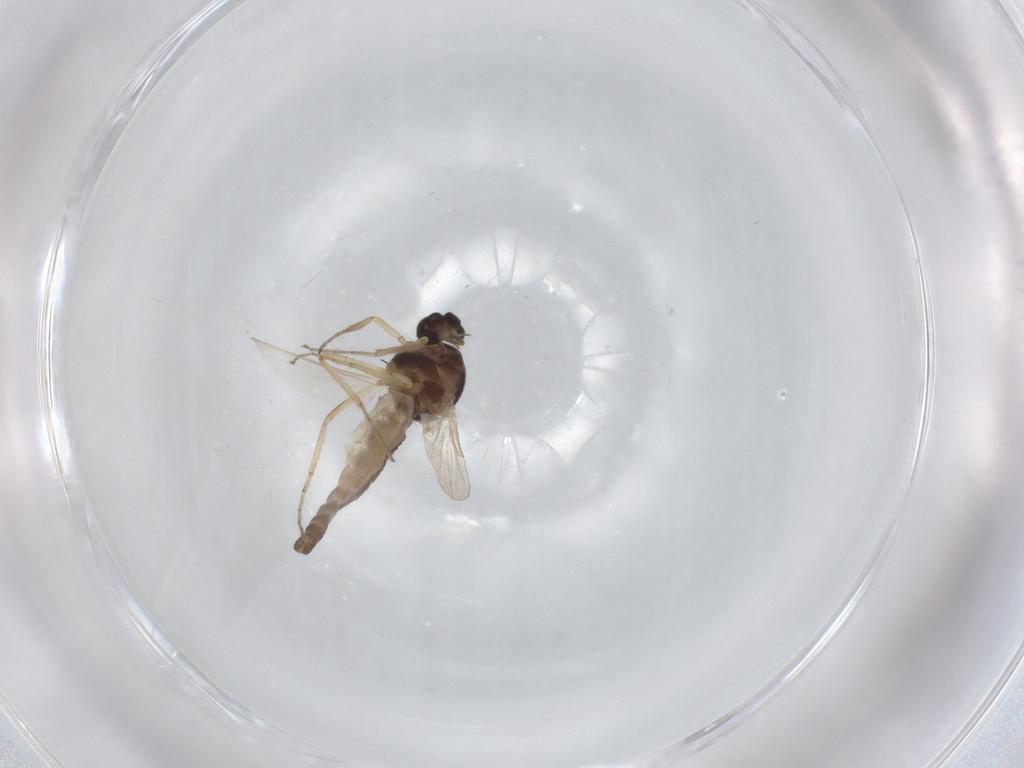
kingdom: Animalia
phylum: Arthropoda
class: Insecta
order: Diptera
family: Ceratopogonidae
